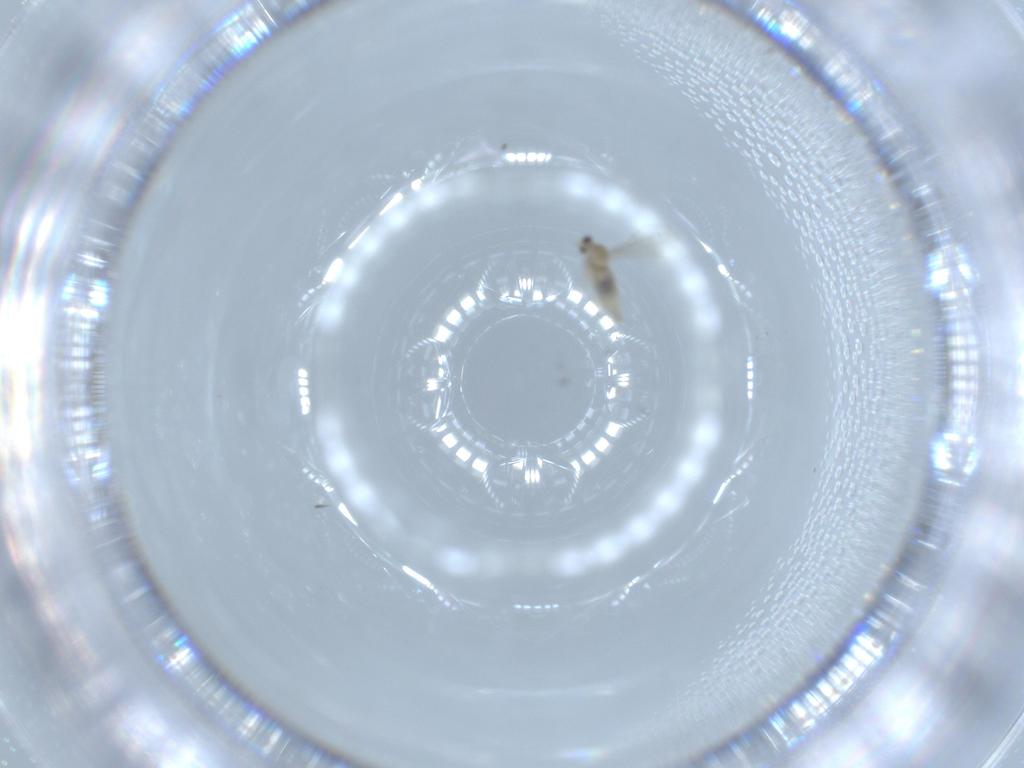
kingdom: Animalia
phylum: Arthropoda
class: Insecta
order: Diptera
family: Cecidomyiidae
